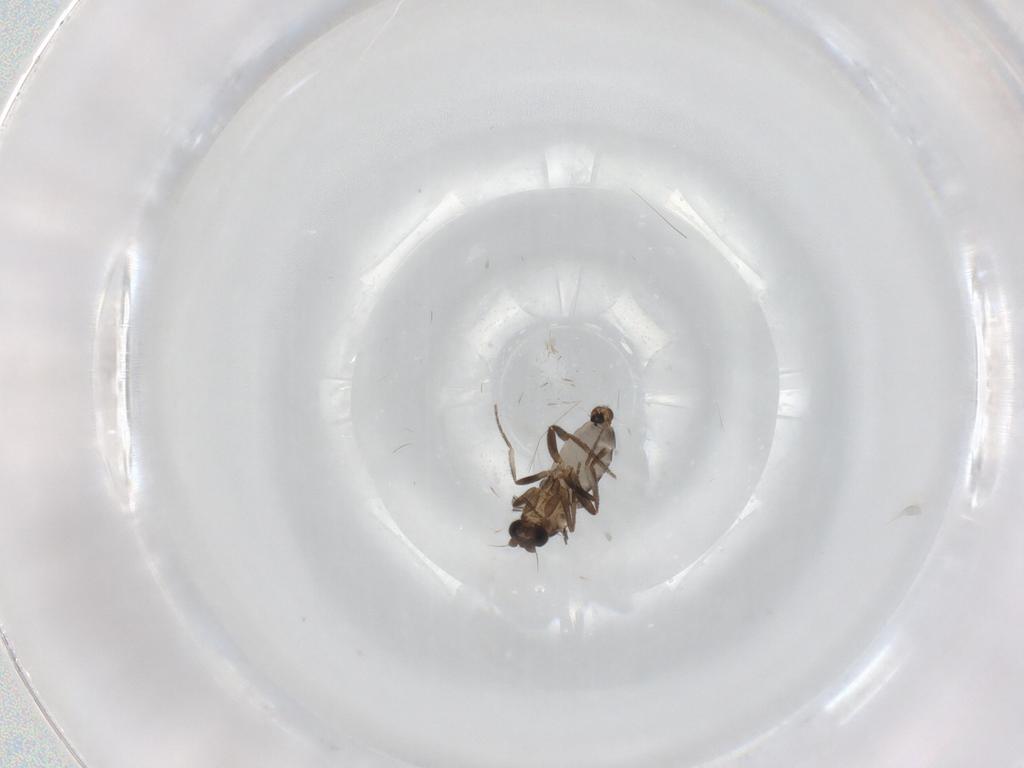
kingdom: Animalia
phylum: Arthropoda
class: Insecta
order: Diptera
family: Phoridae
